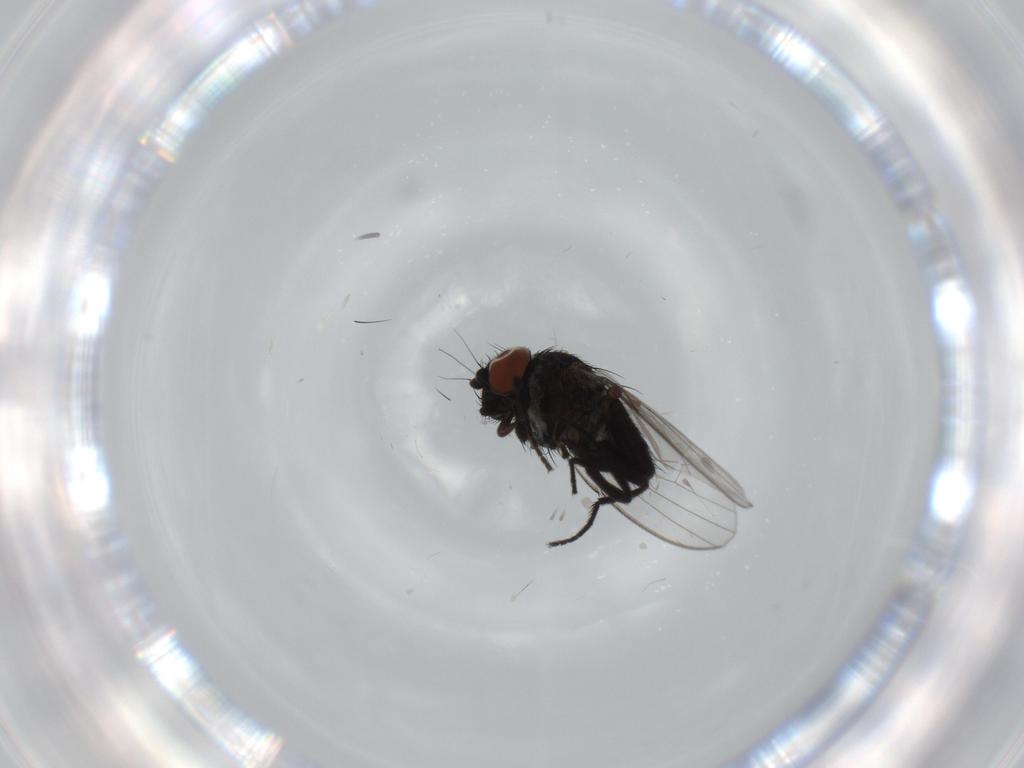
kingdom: Animalia
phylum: Arthropoda
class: Insecta
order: Diptera
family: Milichiidae
